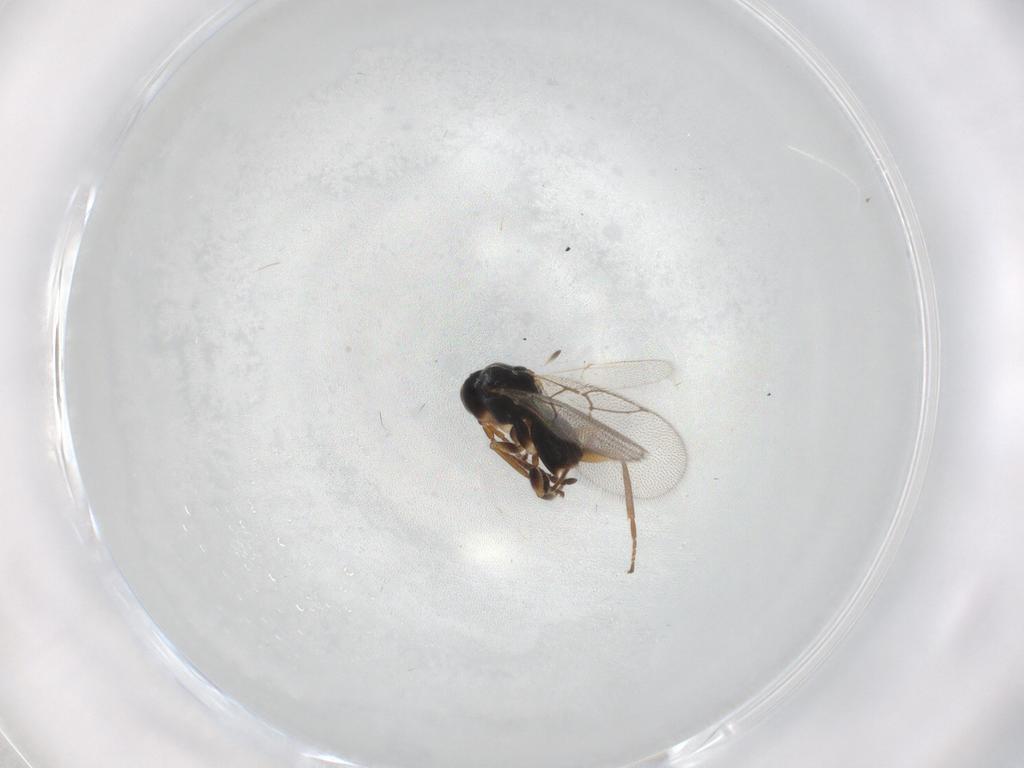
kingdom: Animalia
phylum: Arthropoda
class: Insecta
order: Hymenoptera
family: Cynipidae
